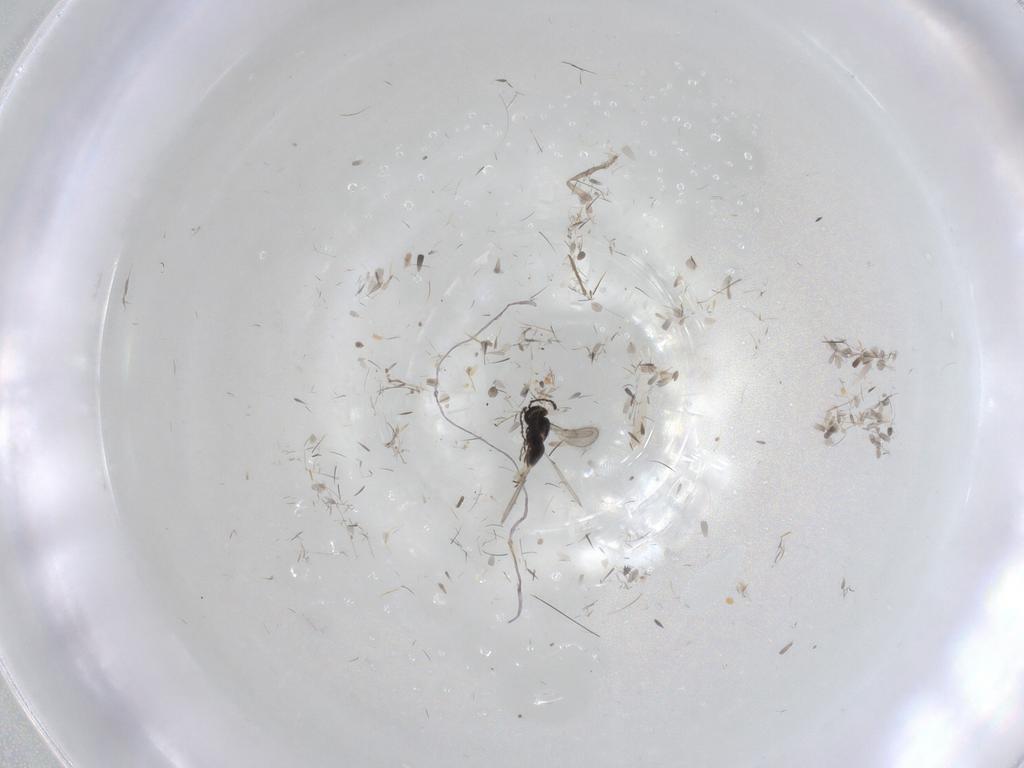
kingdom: Animalia
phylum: Arthropoda
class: Insecta
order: Hymenoptera
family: Scelionidae
